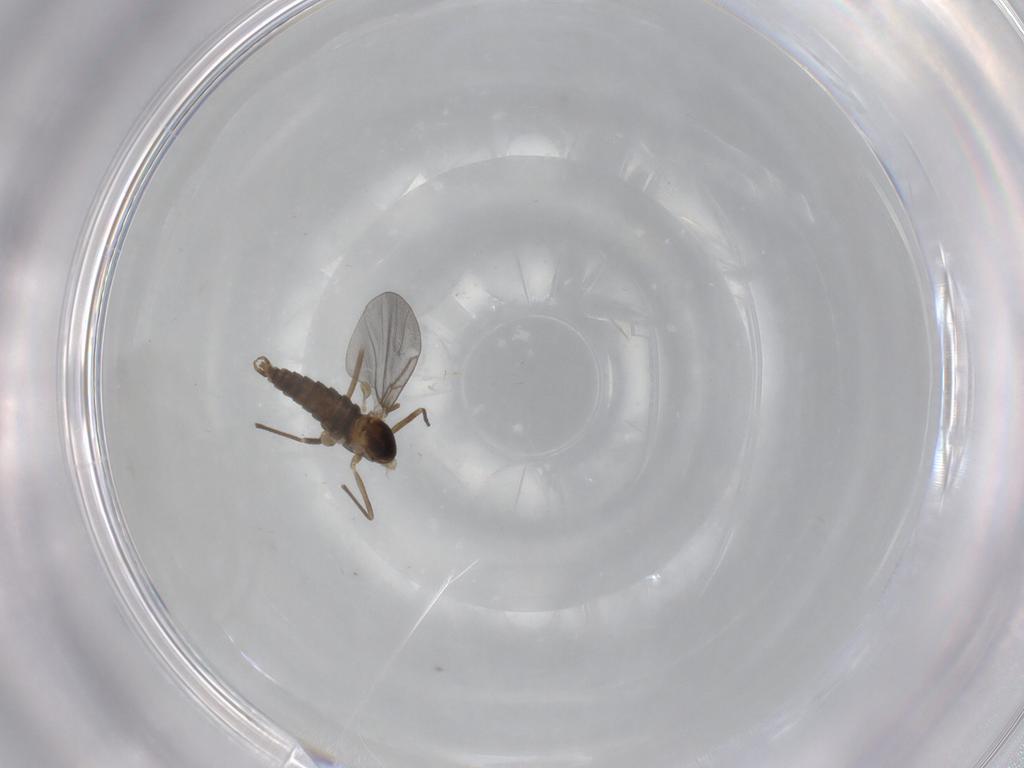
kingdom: Animalia
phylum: Arthropoda
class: Insecta
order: Diptera
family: Cecidomyiidae
